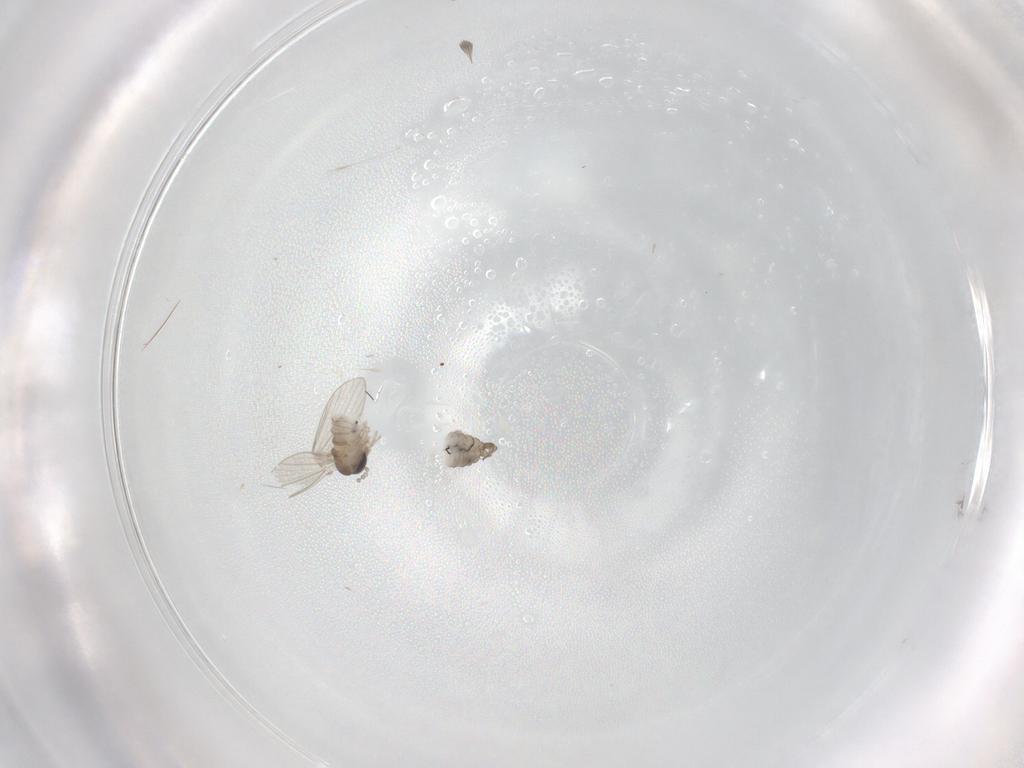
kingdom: Animalia
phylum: Arthropoda
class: Insecta
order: Diptera
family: Psychodidae
